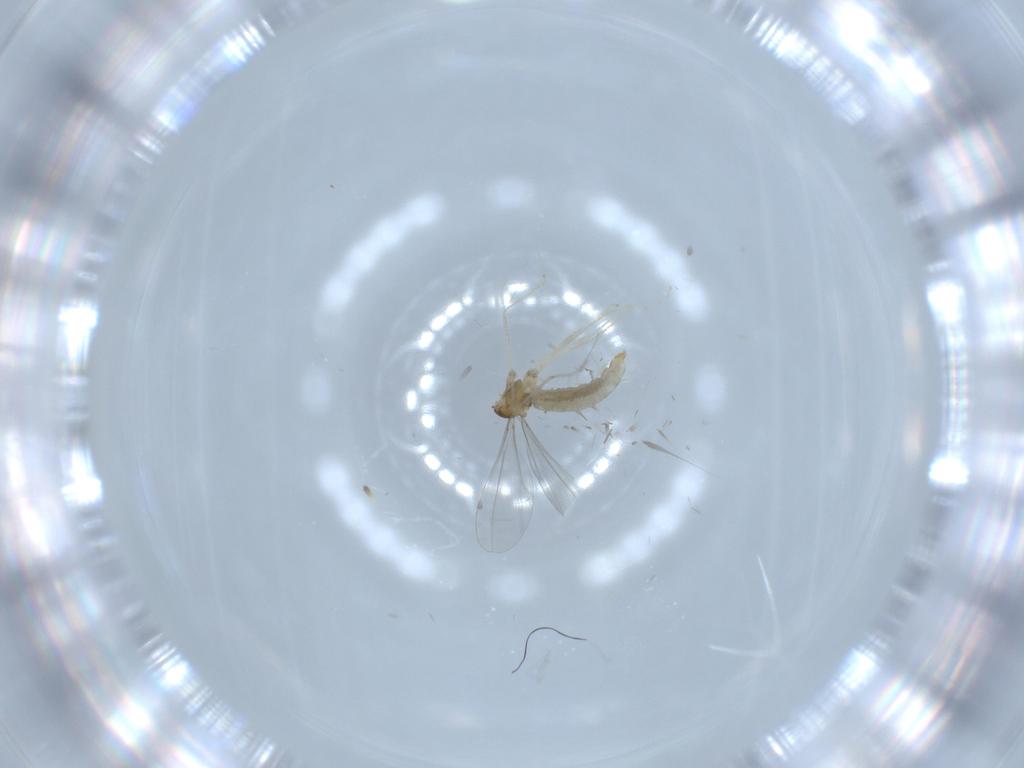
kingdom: Animalia
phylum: Arthropoda
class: Insecta
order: Diptera
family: Cecidomyiidae
